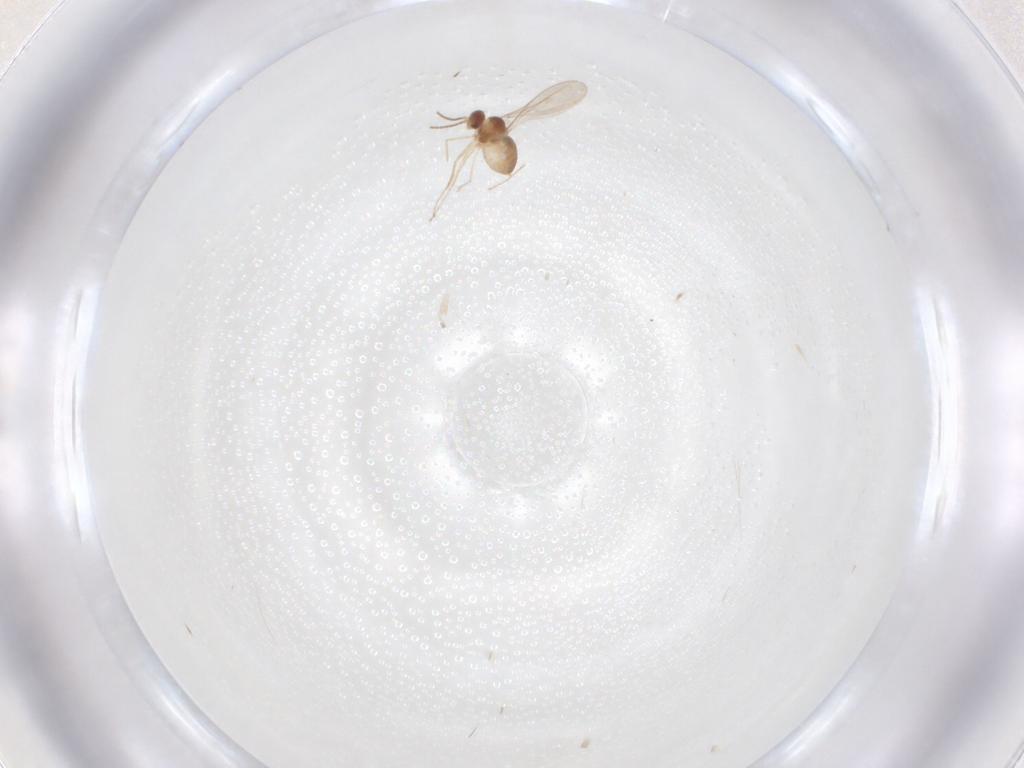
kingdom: Animalia
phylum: Arthropoda
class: Insecta
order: Diptera
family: Cecidomyiidae
